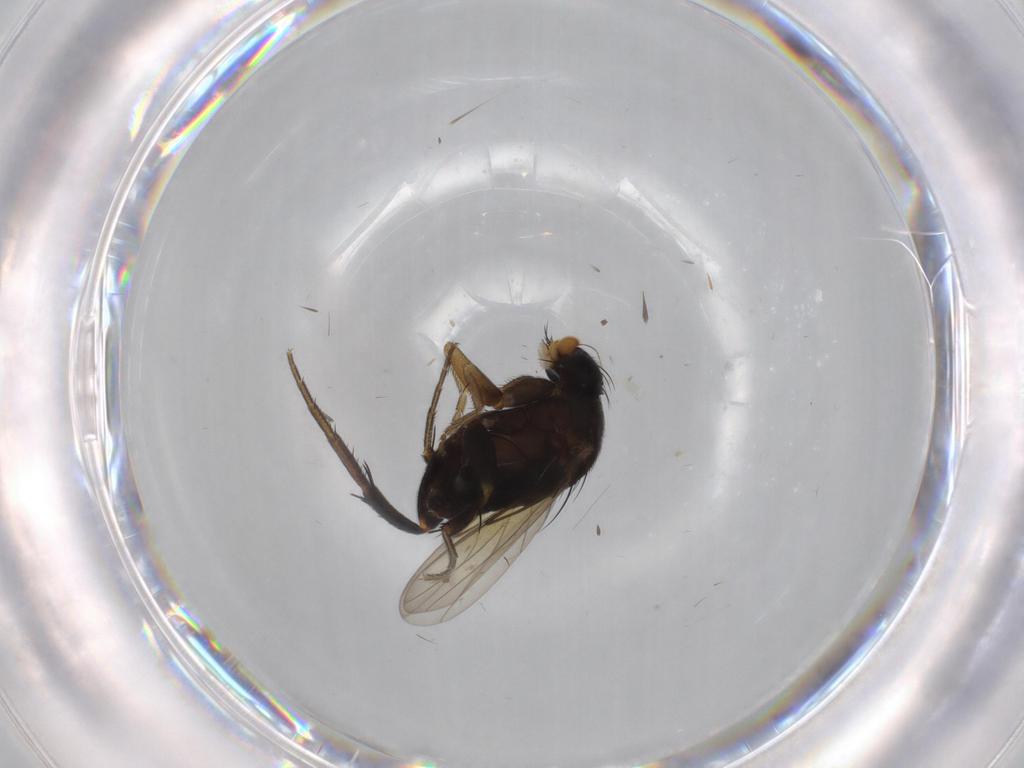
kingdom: Animalia
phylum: Arthropoda
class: Insecta
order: Diptera
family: Phoridae
